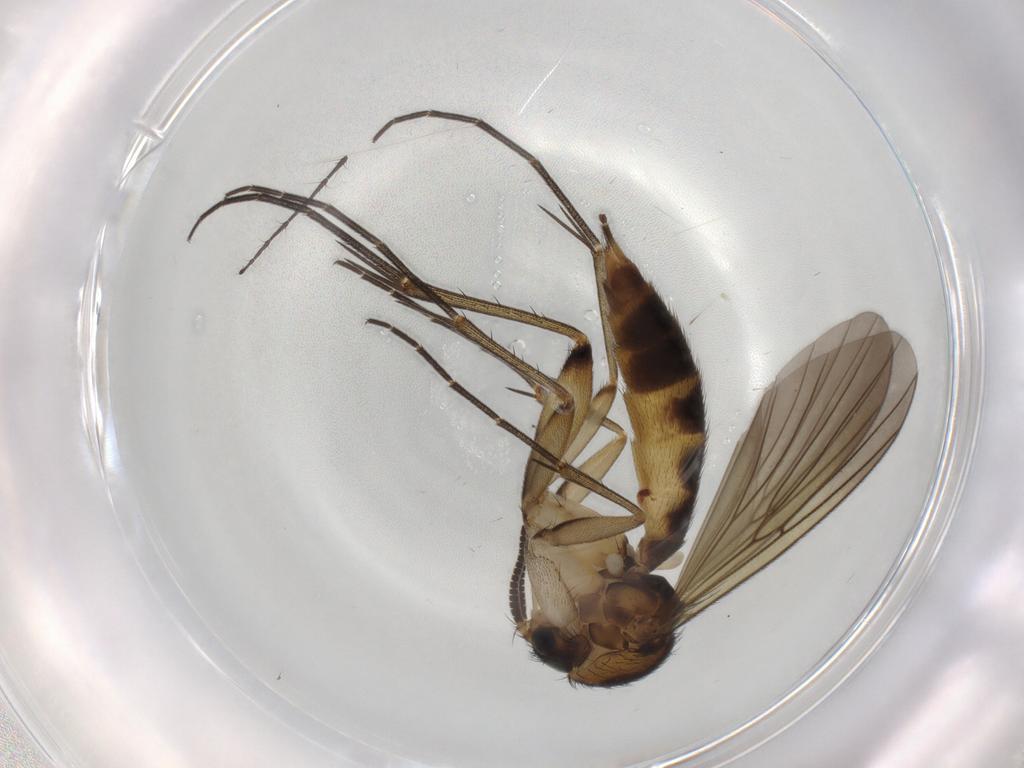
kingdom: Animalia
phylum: Arthropoda
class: Insecta
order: Diptera
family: Mycetophilidae
